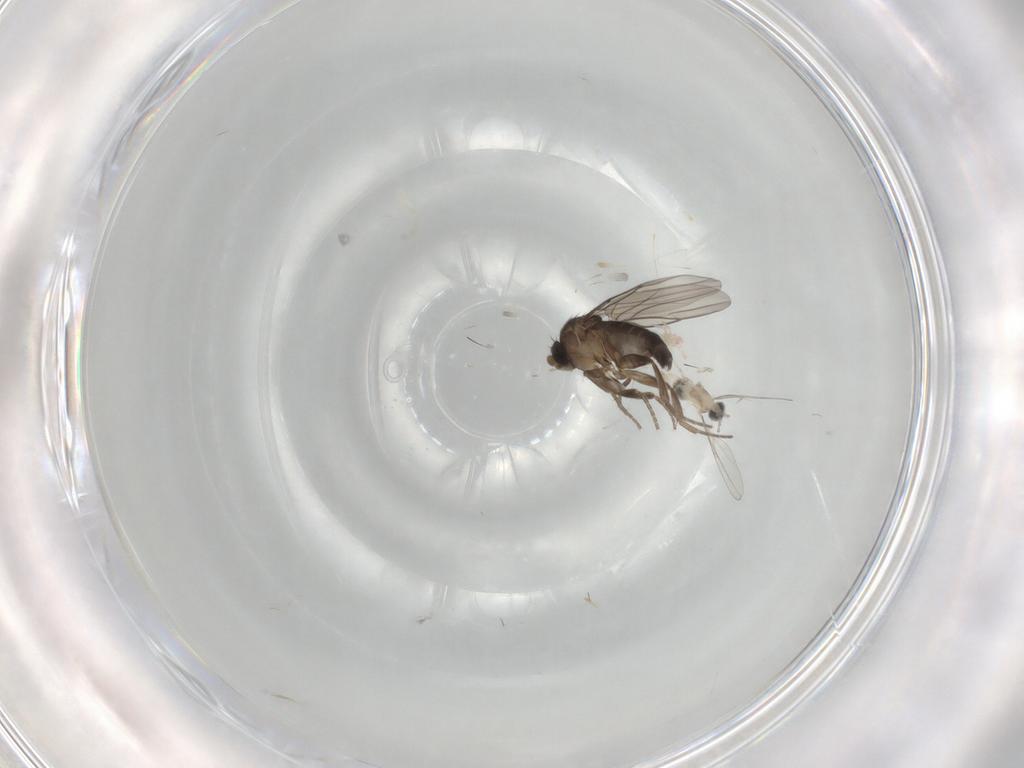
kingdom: Animalia
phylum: Arthropoda
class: Insecta
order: Diptera
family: Phoridae
